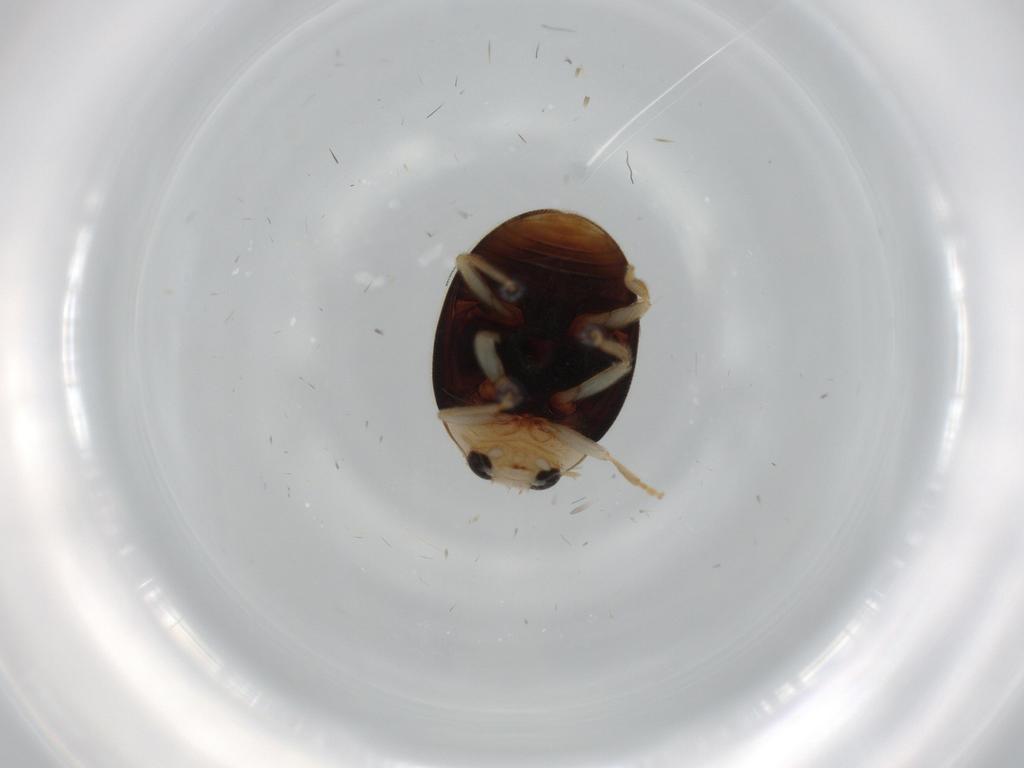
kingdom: Animalia
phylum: Arthropoda
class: Insecta
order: Coleoptera
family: Coccinellidae
